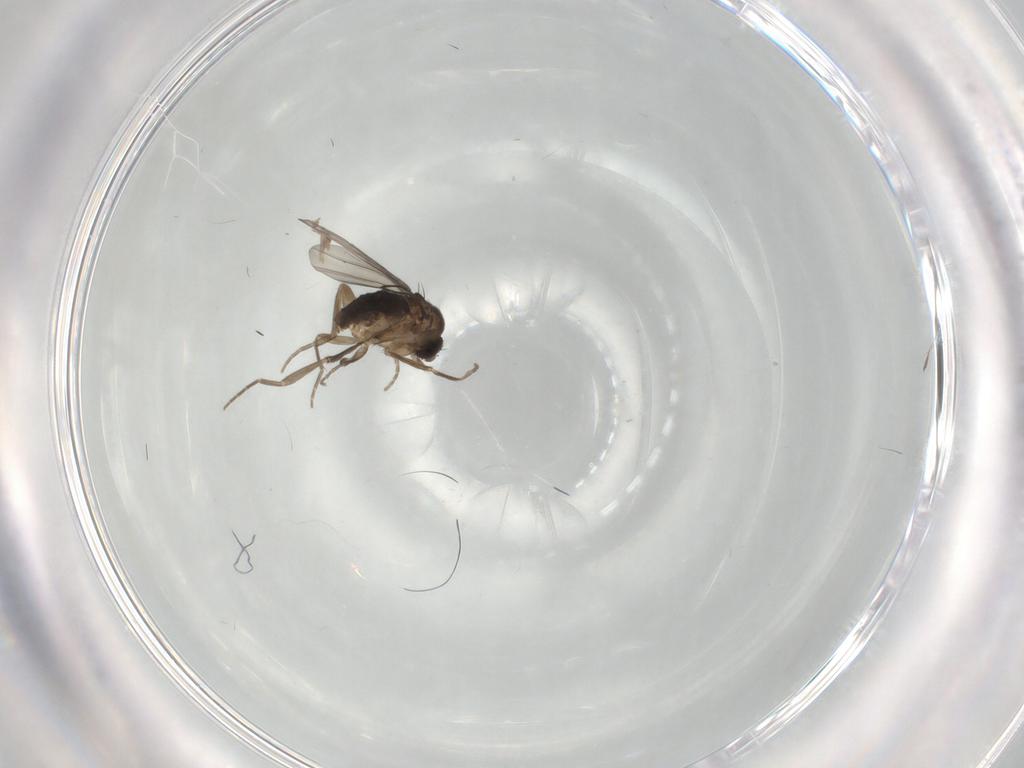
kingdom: Animalia
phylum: Arthropoda
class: Insecta
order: Diptera
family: Phoridae
